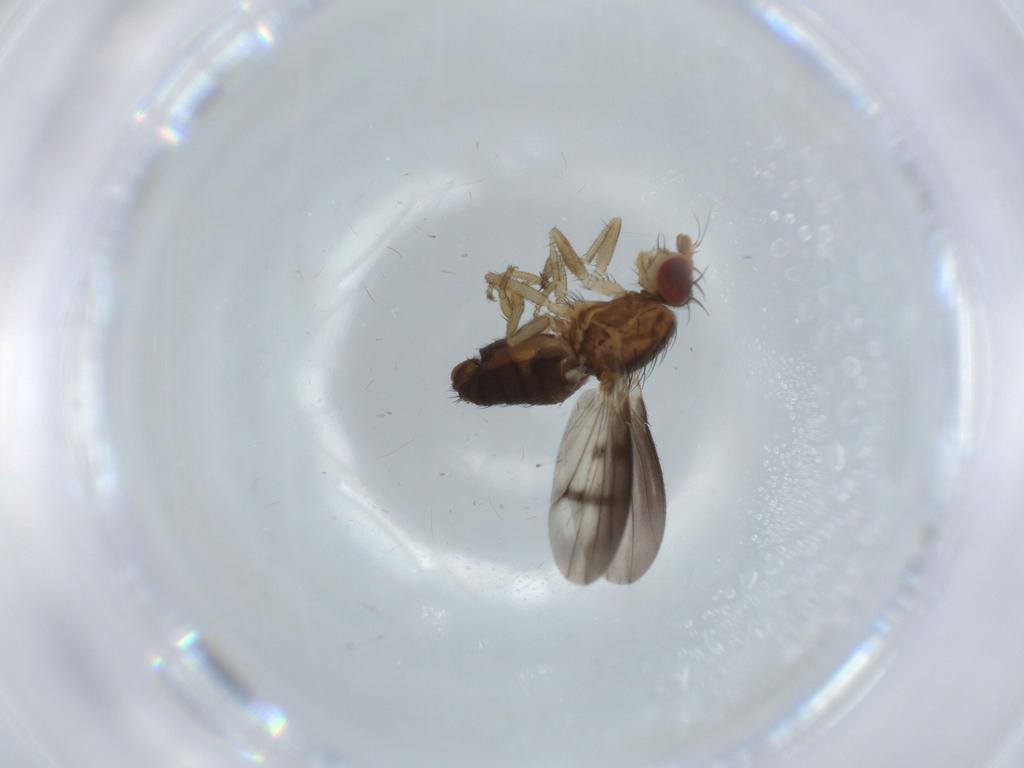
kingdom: Animalia
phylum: Arthropoda
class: Insecta
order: Diptera
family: Heleomyzidae
